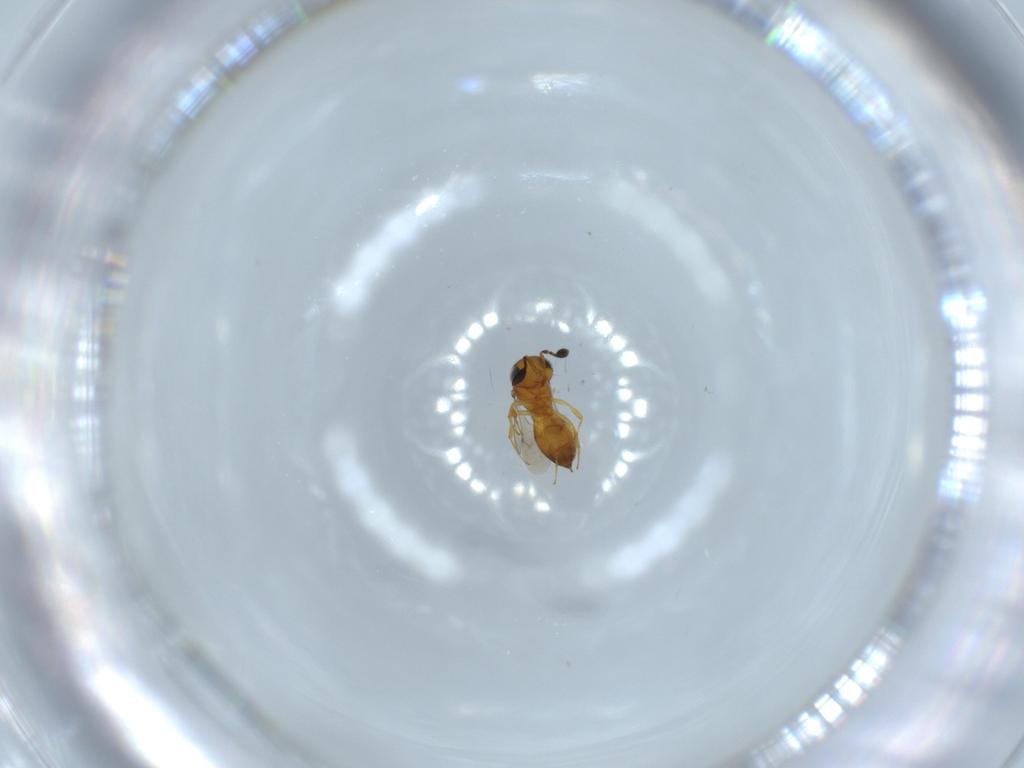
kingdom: Animalia
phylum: Arthropoda
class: Insecta
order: Hymenoptera
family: Scelionidae
